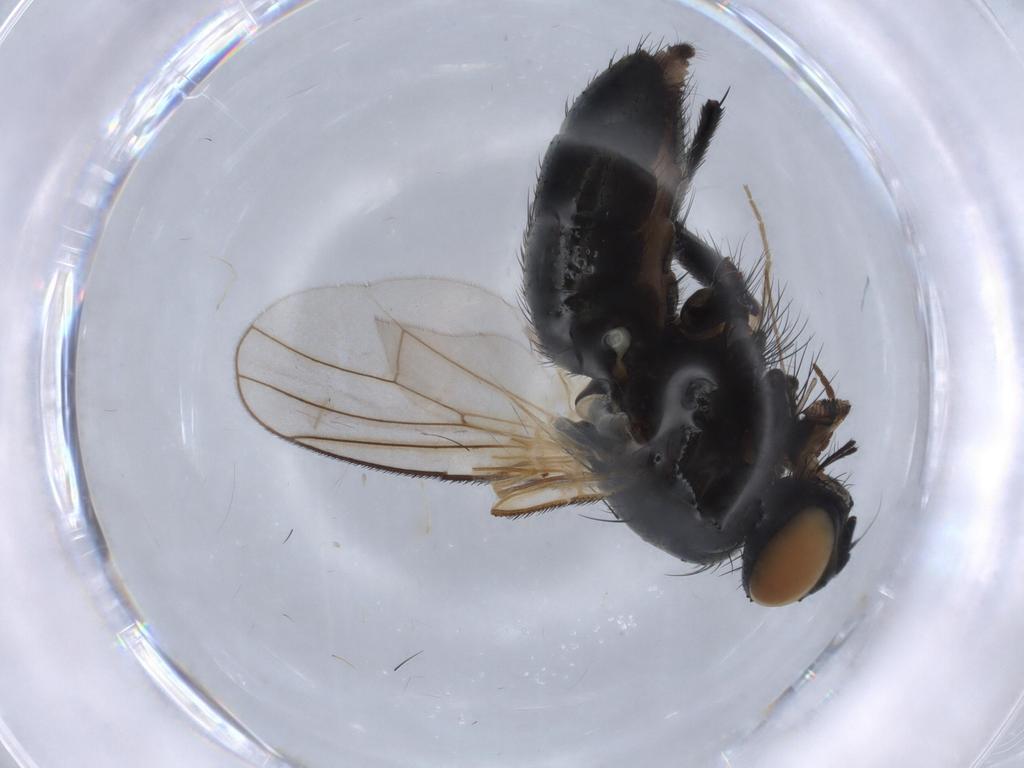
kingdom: Animalia
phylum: Arthropoda
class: Insecta
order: Diptera
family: Muscidae
